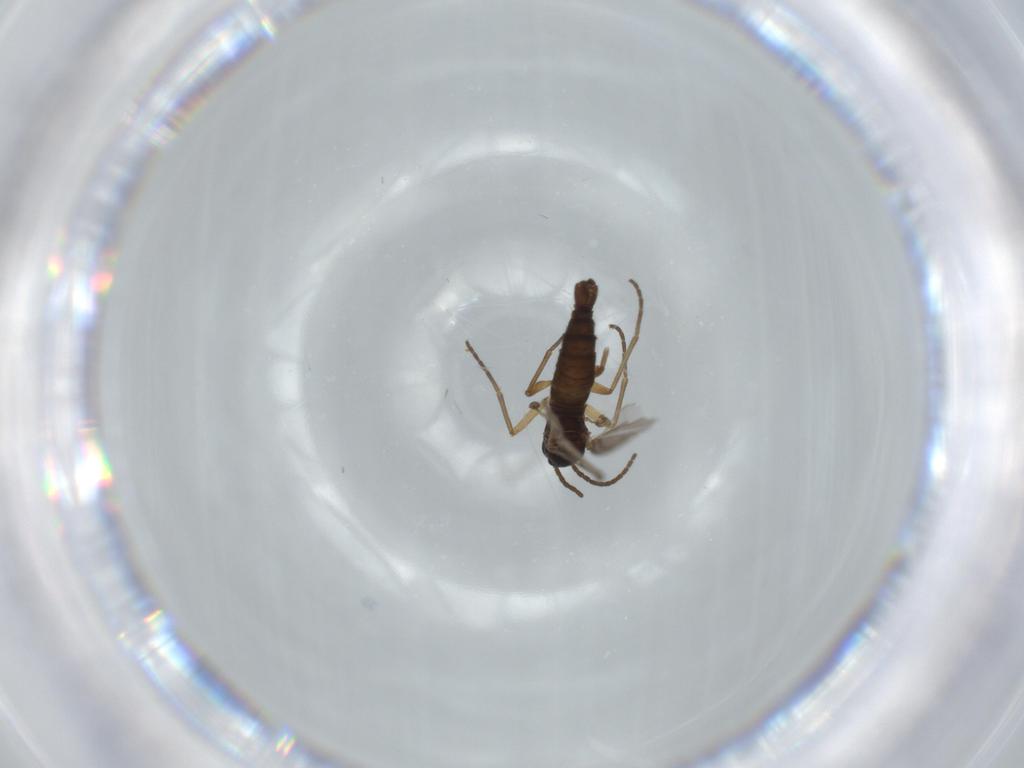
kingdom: Animalia
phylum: Arthropoda
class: Insecta
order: Diptera
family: Sciaridae
